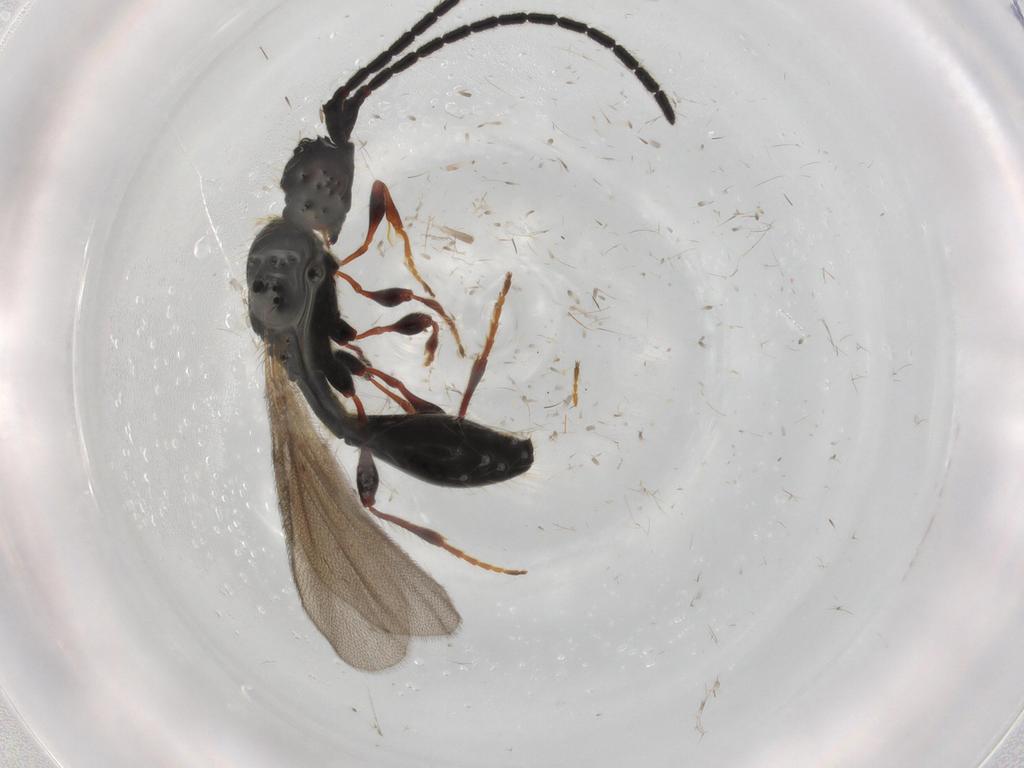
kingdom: Animalia
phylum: Arthropoda
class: Insecta
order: Hymenoptera
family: Diapriidae
